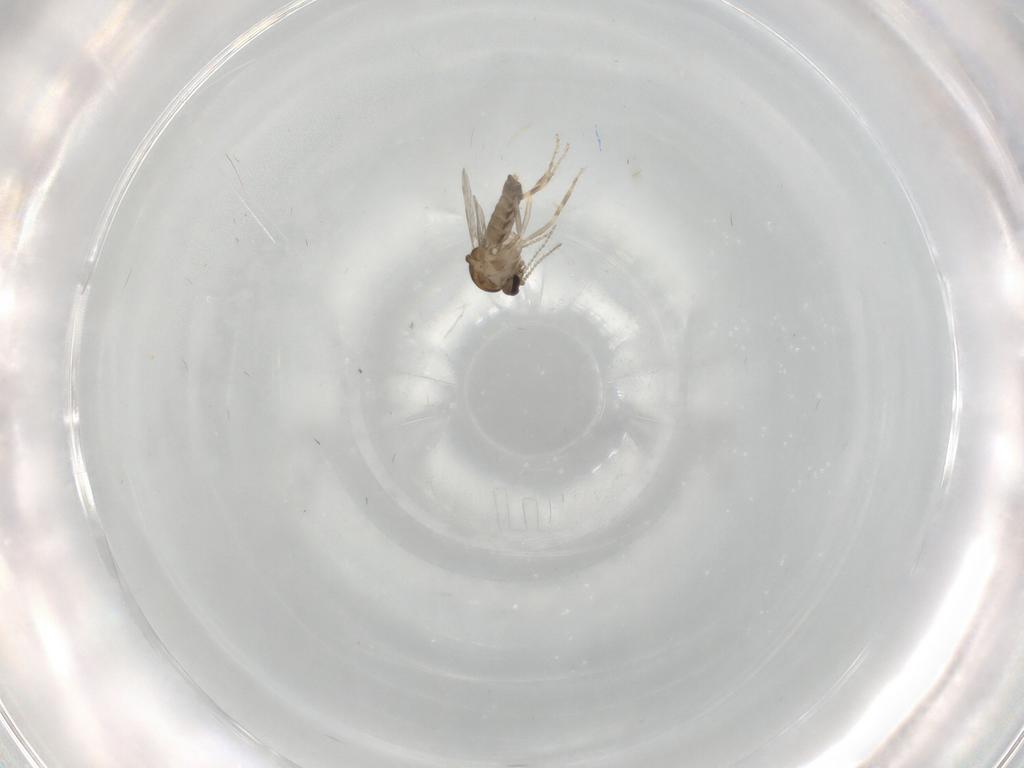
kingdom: Animalia
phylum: Arthropoda
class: Insecta
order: Diptera
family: Ceratopogonidae
